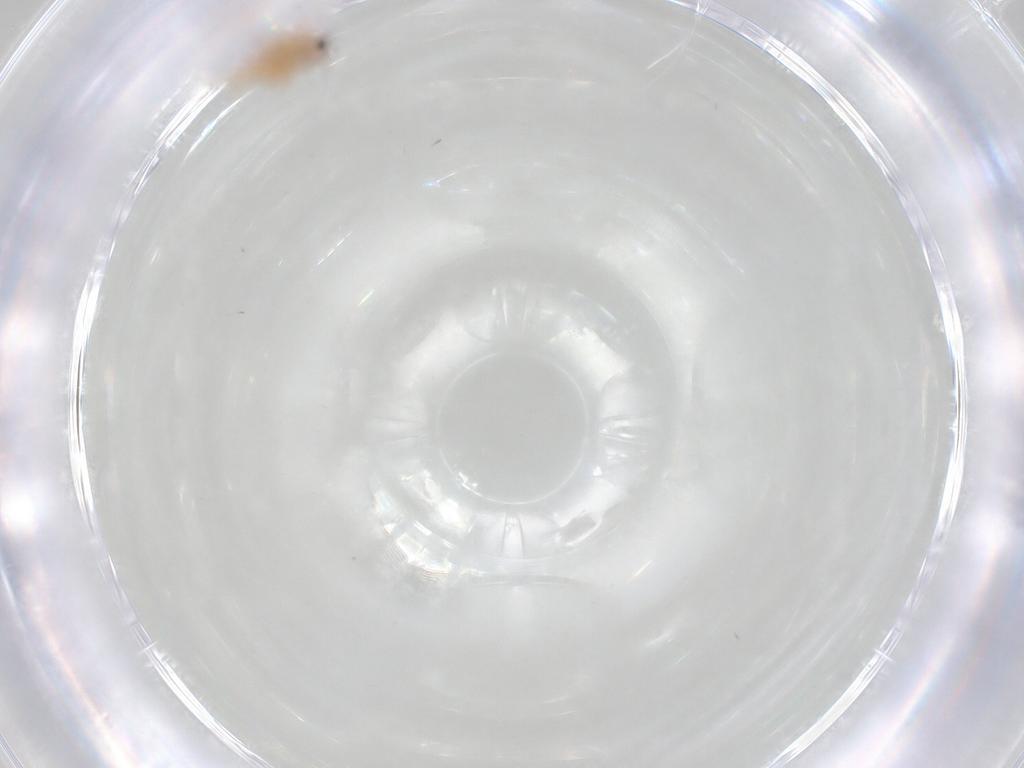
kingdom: Animalia
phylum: Arthropoda
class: Insecta
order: Diptera
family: Chironomidae
